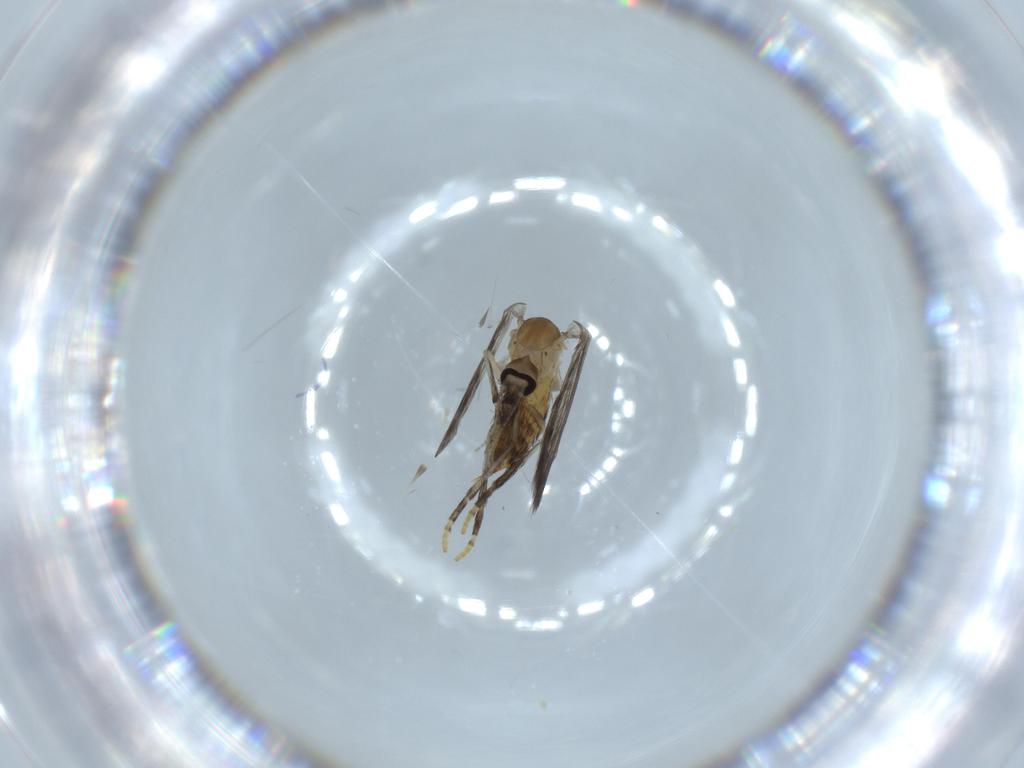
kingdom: Animalia
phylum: Arthropoda
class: Insecta
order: Diptera
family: Psychodidae
